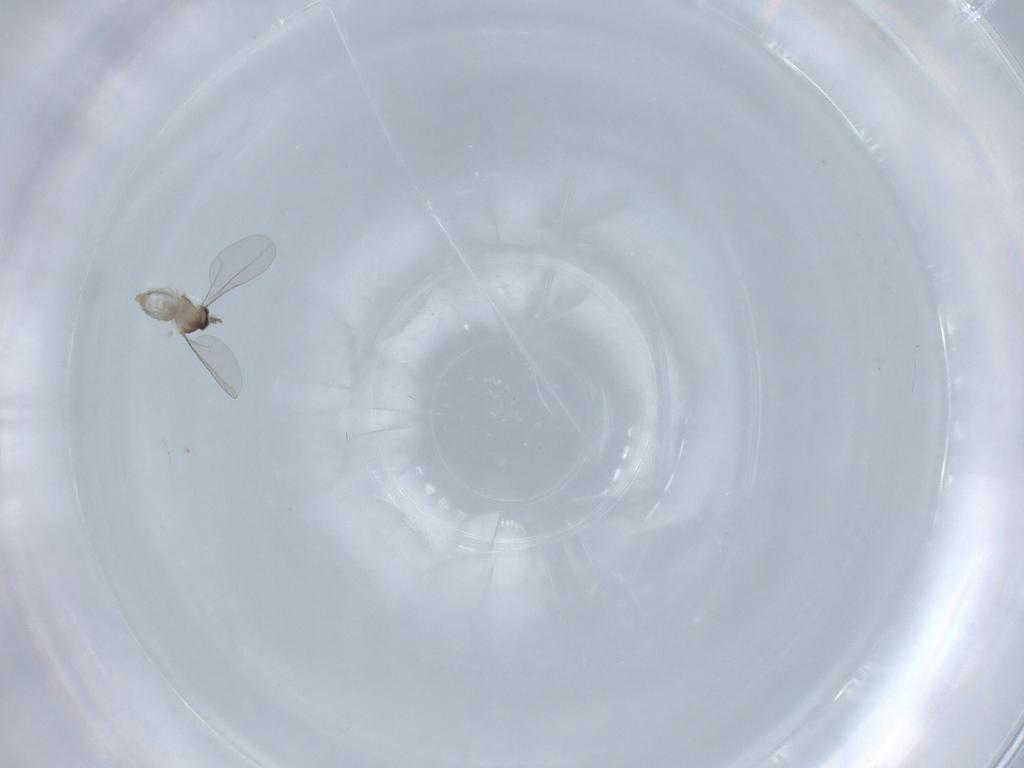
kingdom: Animalia
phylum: Arthropoda
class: Insecta
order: Diptera
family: Cecidomyiidae
